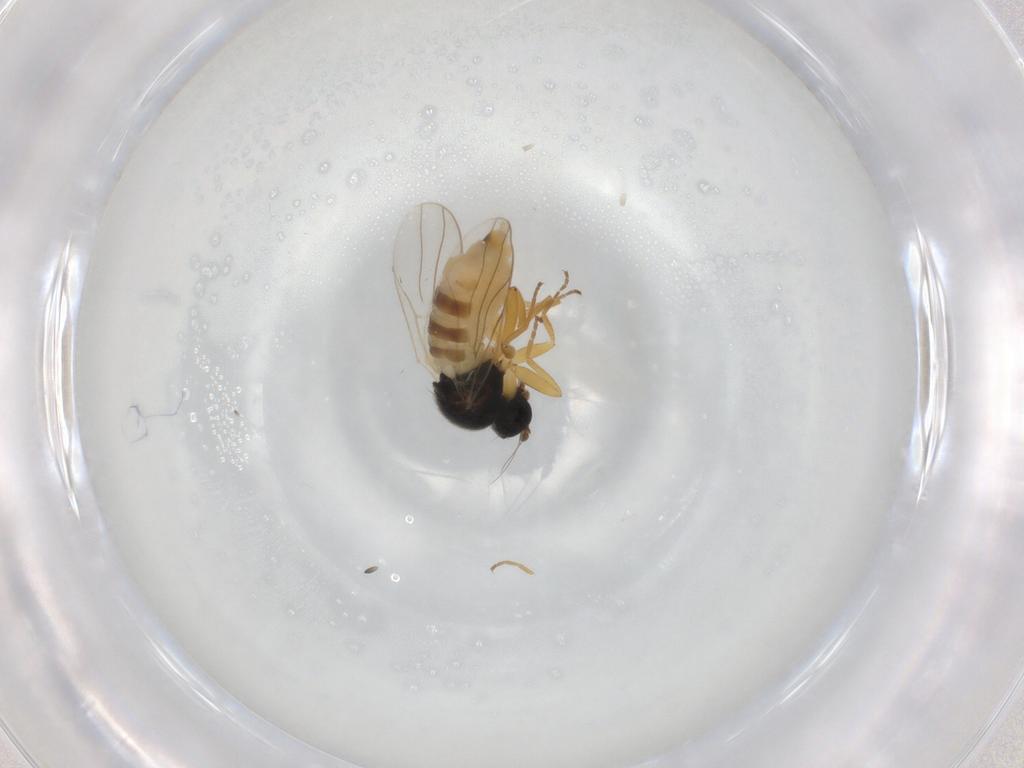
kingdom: Animalia
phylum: Arthropoda
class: Insecta
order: Diptera
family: Hybotidae
